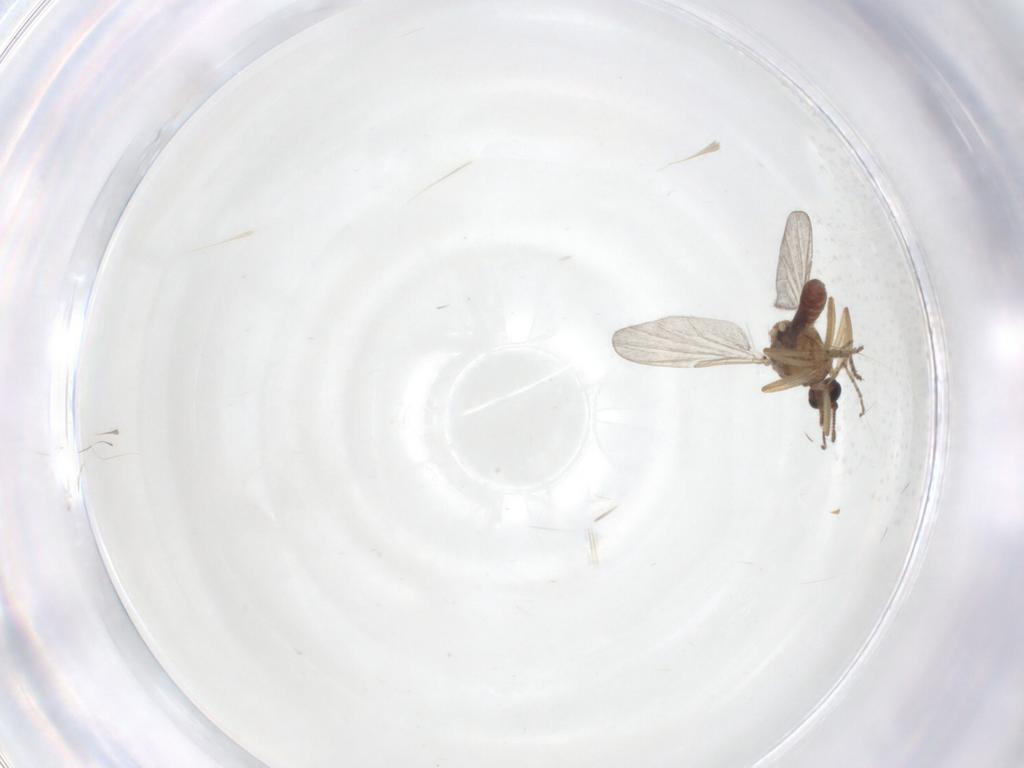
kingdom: Animalia
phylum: Arthropoda
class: Insecta
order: Diptera
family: Ceratopogonidae
